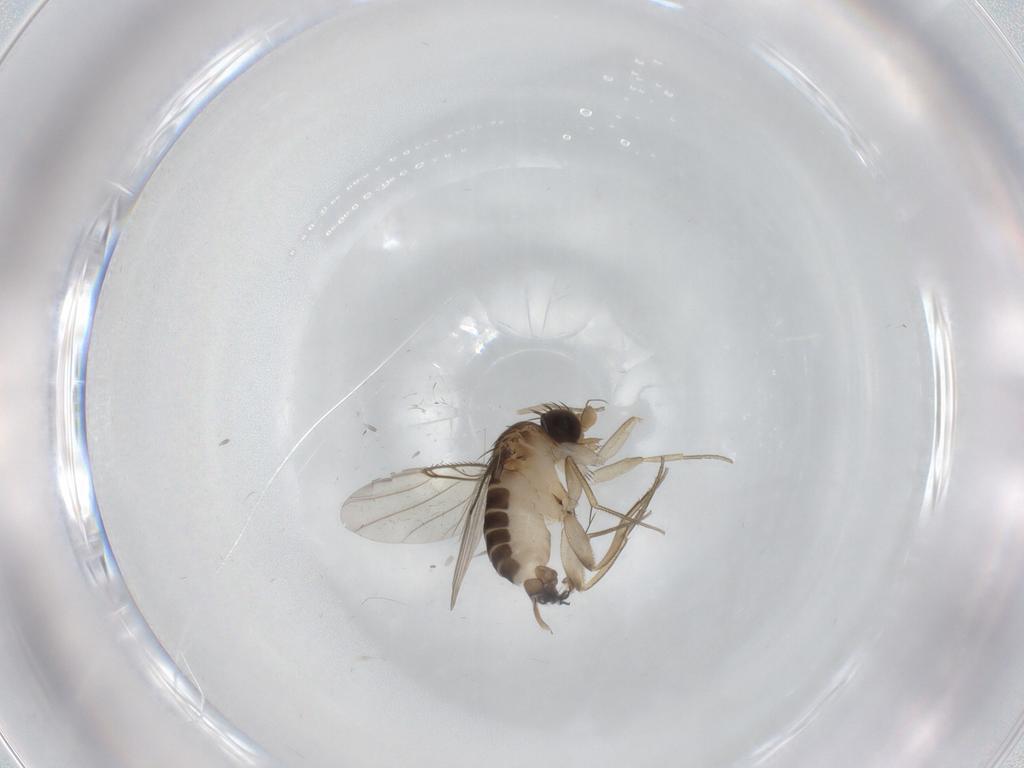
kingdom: Animalia
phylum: Arthropoda
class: Insecta
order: Diptera
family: Phoridae
